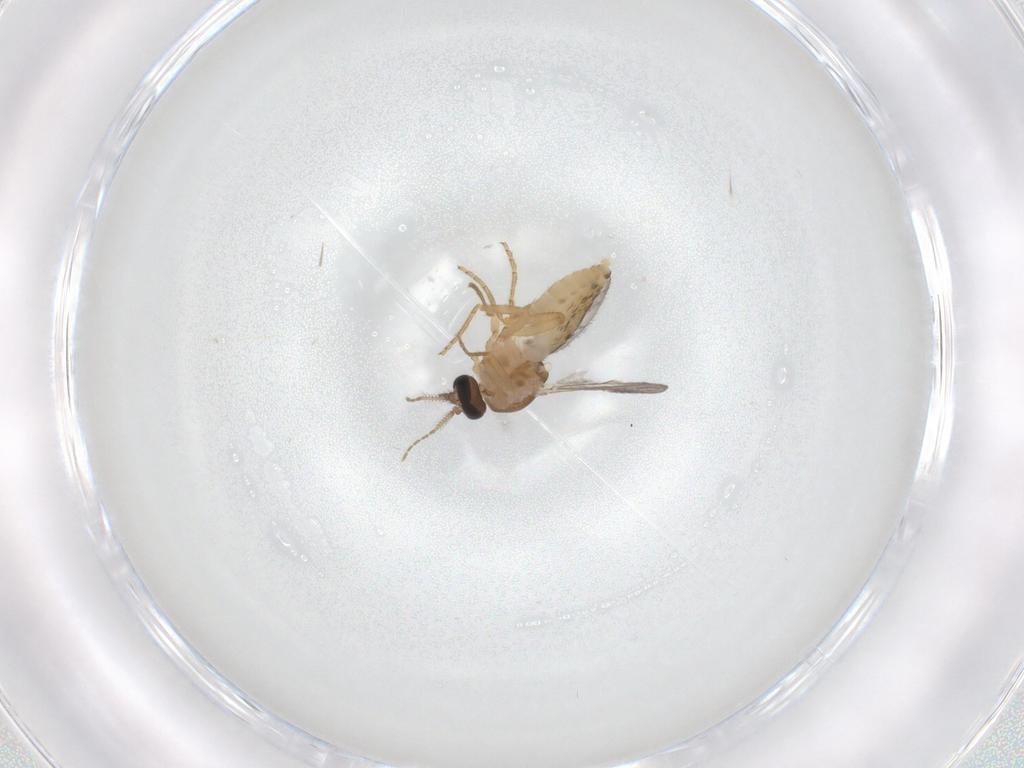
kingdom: Animalia
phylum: Arthropoda
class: Insecta
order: Diptera
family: Ceratopogonidae
